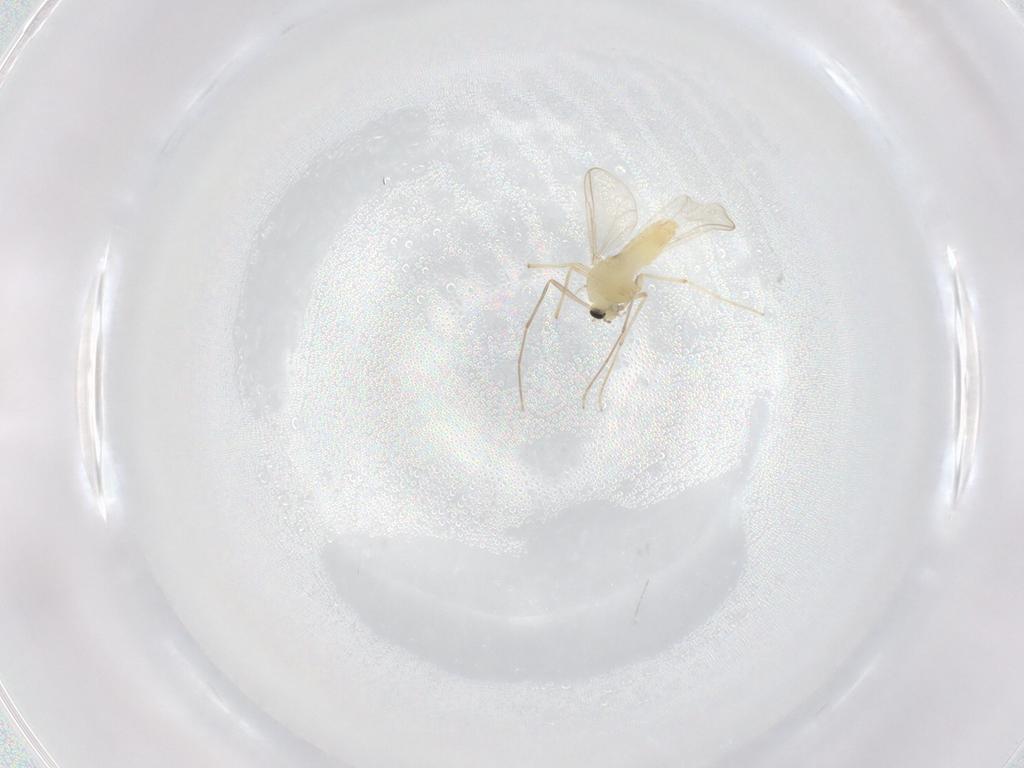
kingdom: Animalia
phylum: Arthropoda
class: Insecta
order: Diptera
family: Chironomidae
